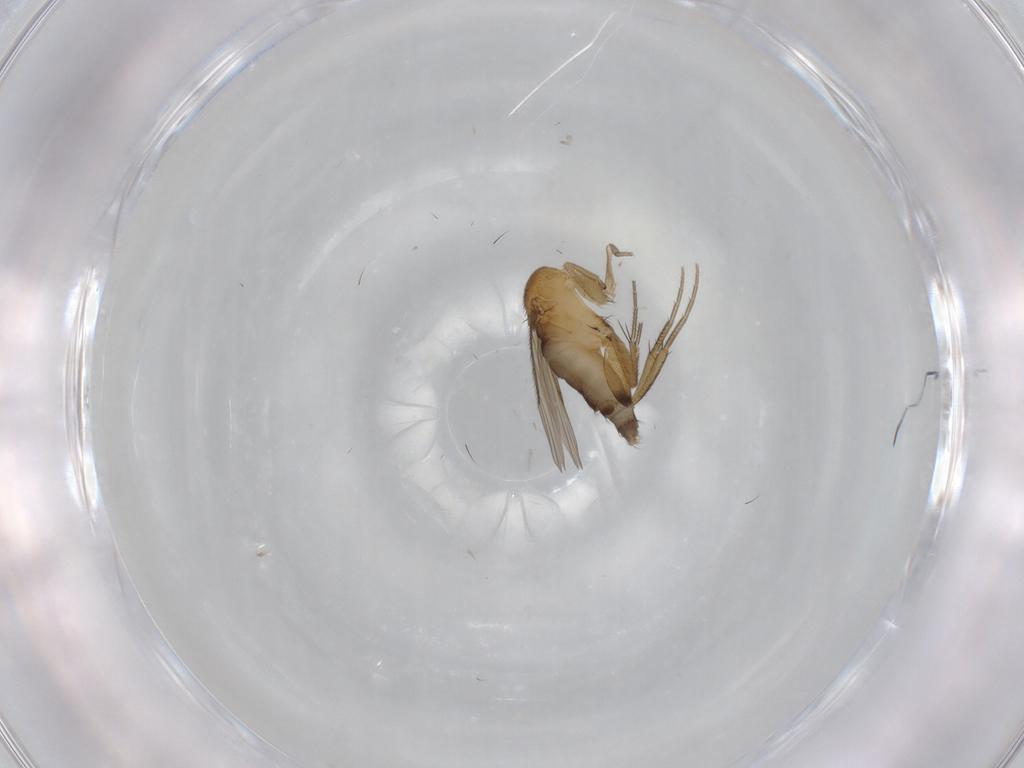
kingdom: Animalia
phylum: Arthropoda
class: Insecta
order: Diptera
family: Phoridae
